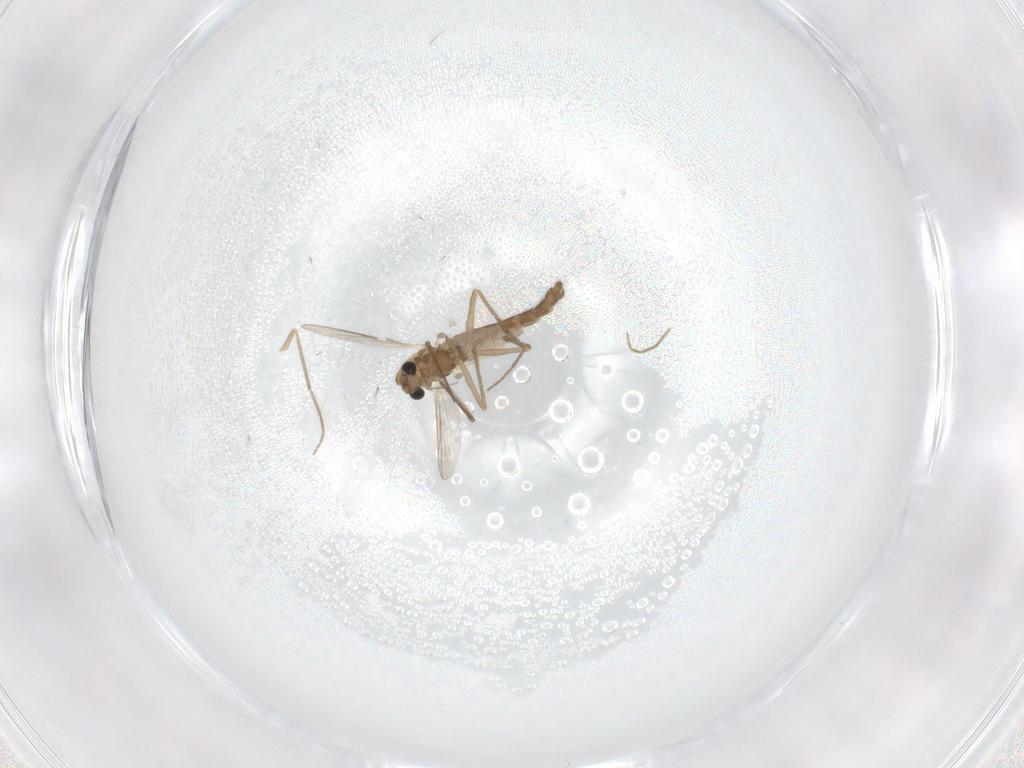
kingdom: Animalia
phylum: Arthropoda
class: Insecta
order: Diptera
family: Chironomidae
